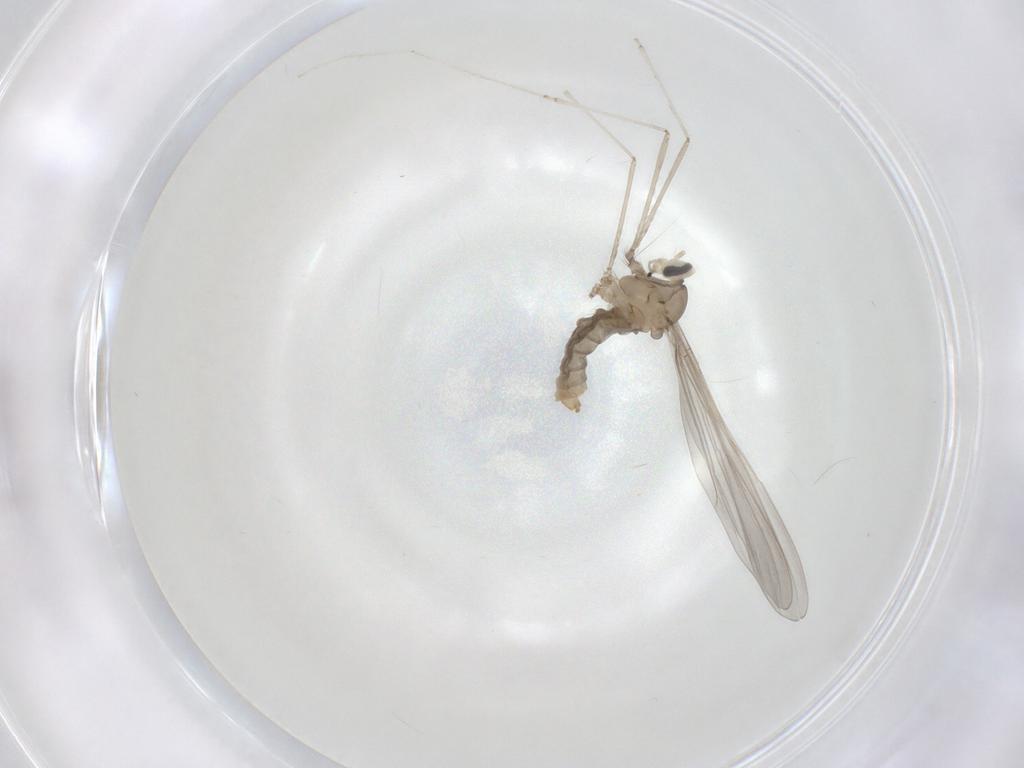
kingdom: Animalia
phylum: Arthropoda
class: Insecta
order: Diptera
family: Cecidomyiidae
